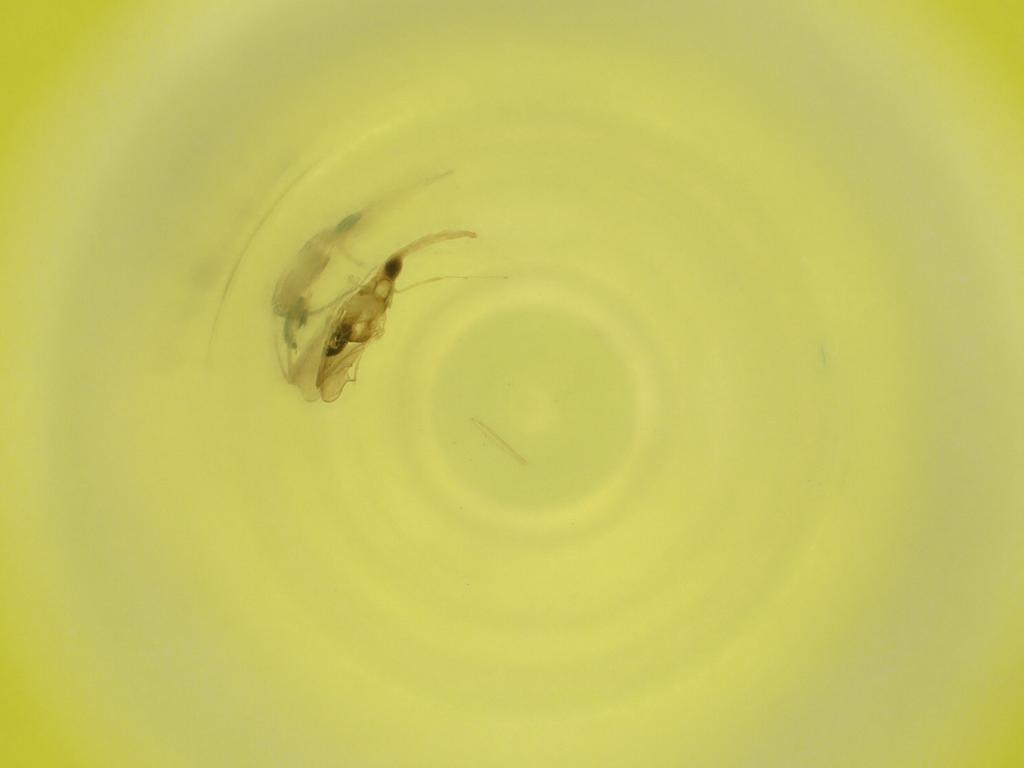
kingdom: Animalia
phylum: Arthropoda
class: Insecta
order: Diptera
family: Cecidomyiidae
